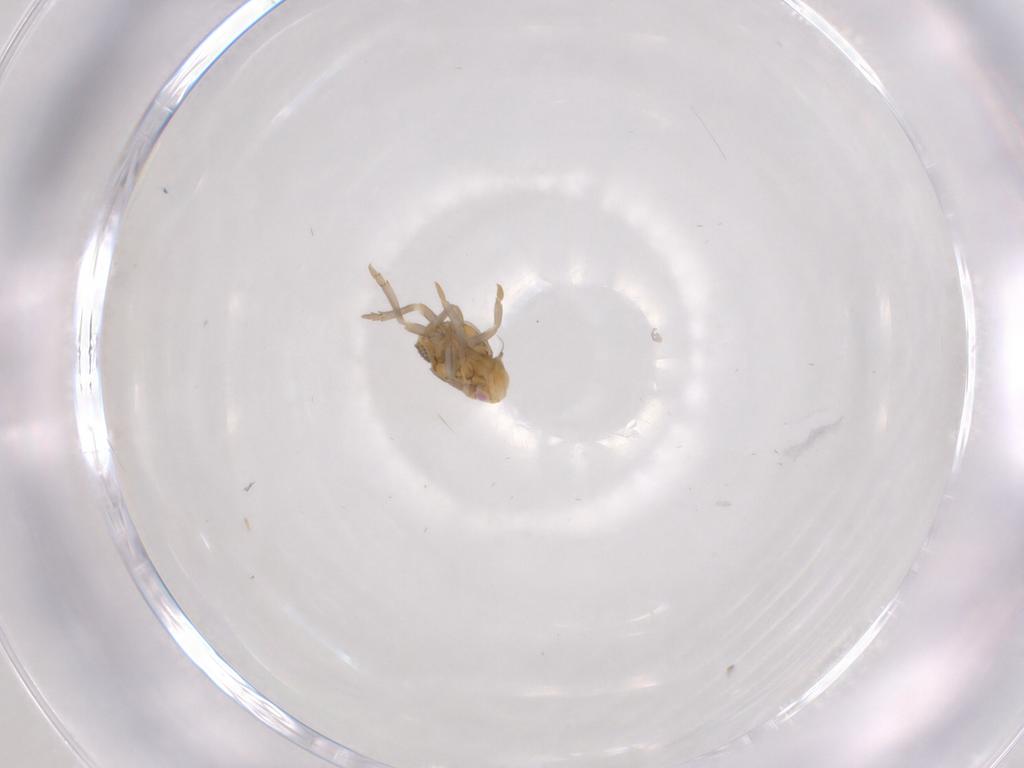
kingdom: Animalia
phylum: Arthropoda
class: Insecta
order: Hemiptera
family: Flatidae
